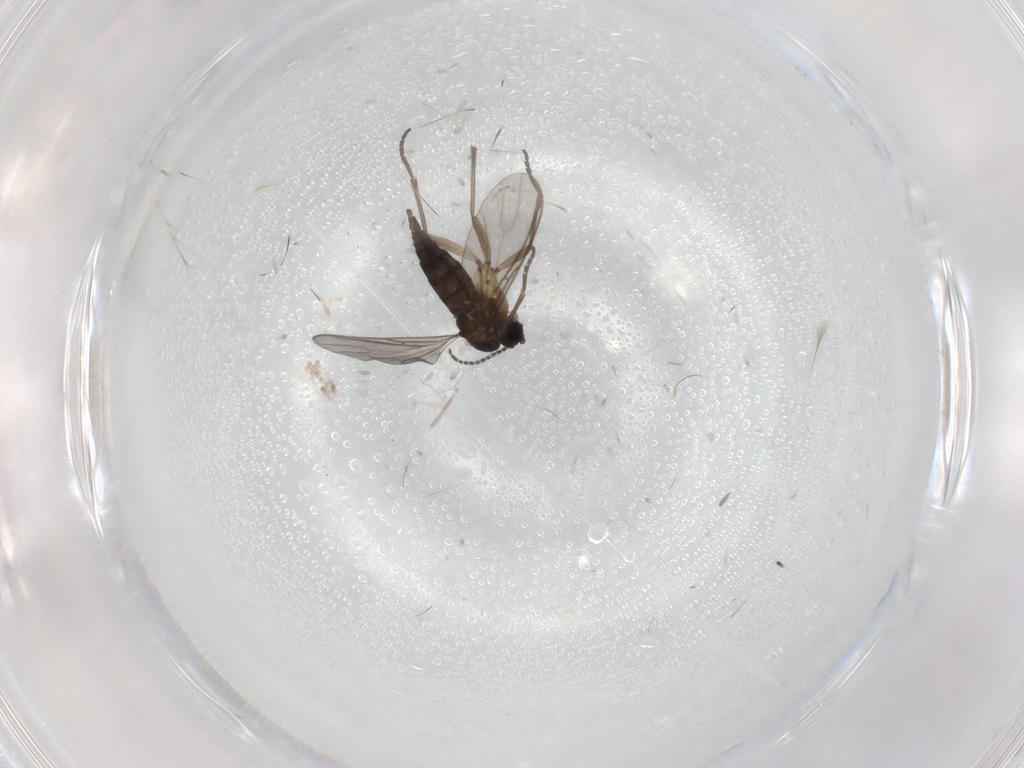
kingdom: Animalia
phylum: Arthropoda
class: Insecta
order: Diptera
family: Sciaridae
